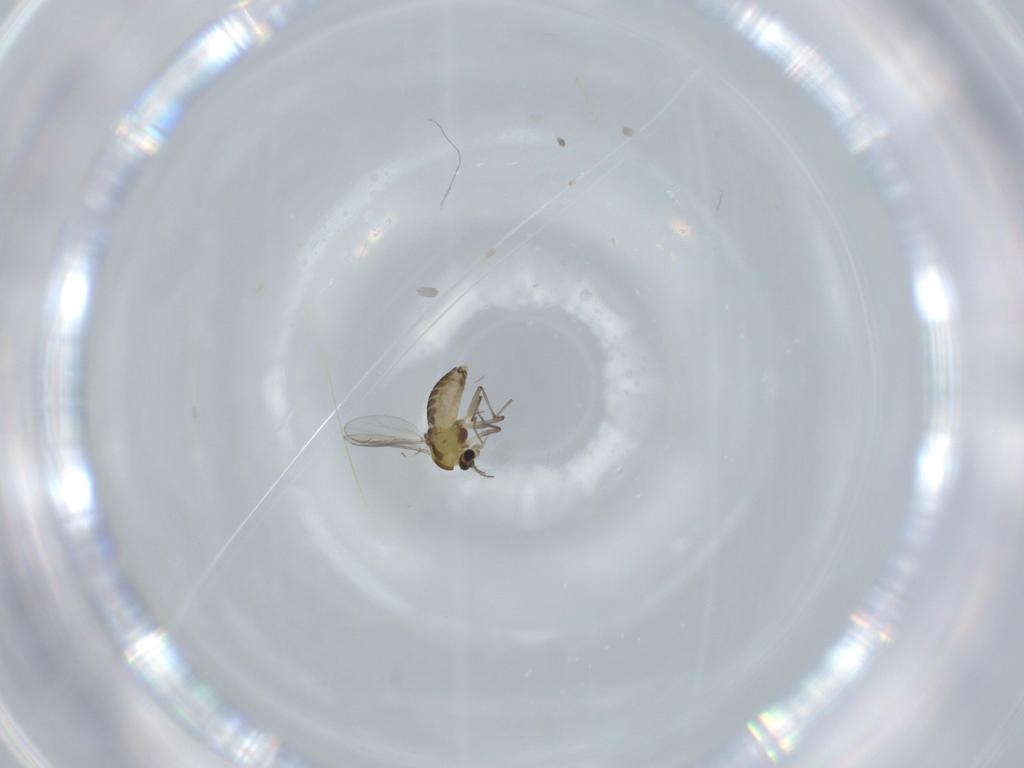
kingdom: Animalia
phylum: Arthropoda
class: Insecta
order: Diptera
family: Chironomidae
